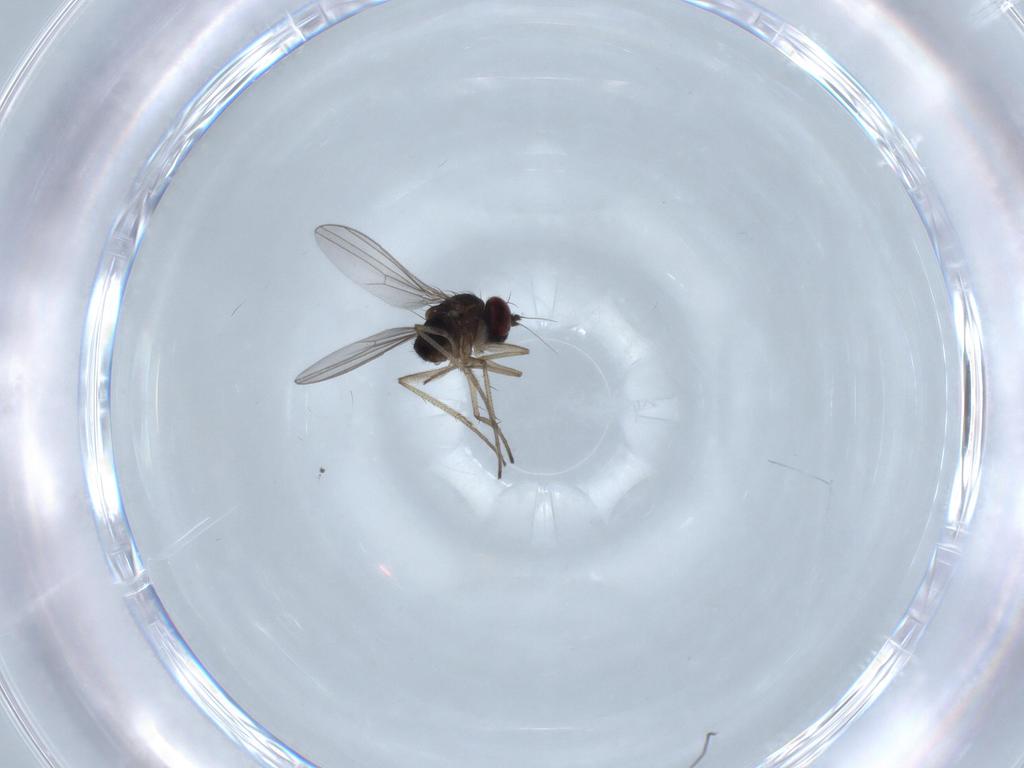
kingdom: Animalia
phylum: Arthropoda
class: Insecta
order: Diptera
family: Dolichopodidae
